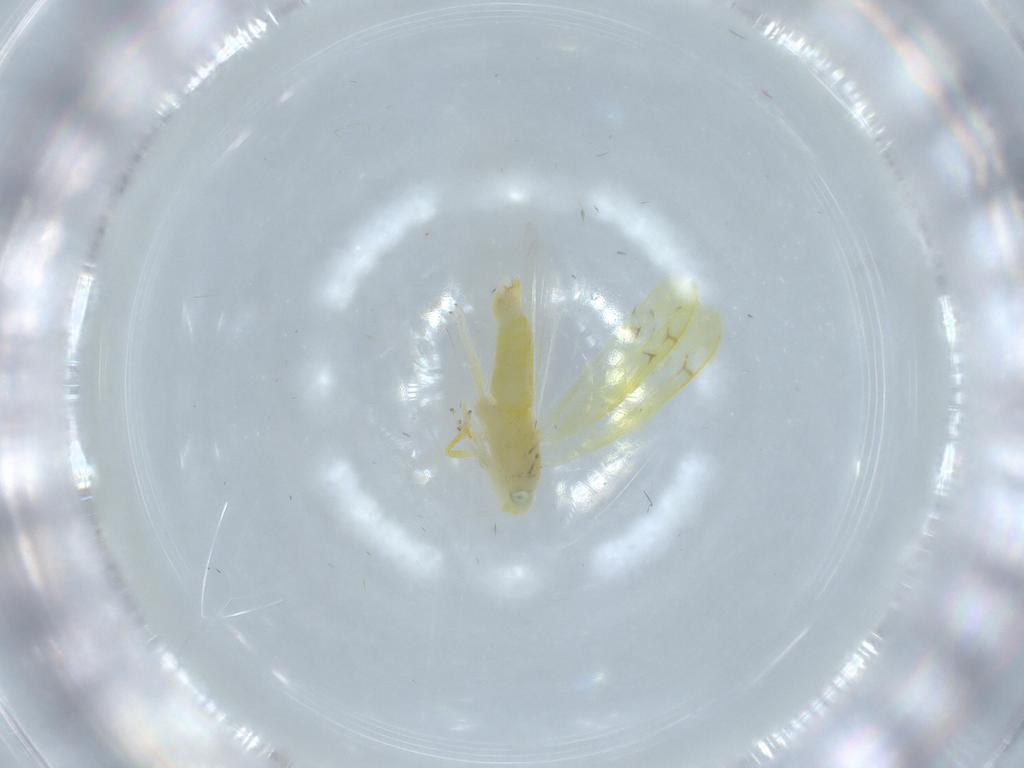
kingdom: Animalia
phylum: Arthropoda
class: Insecta
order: Hemiptera
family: Cicadellidae
